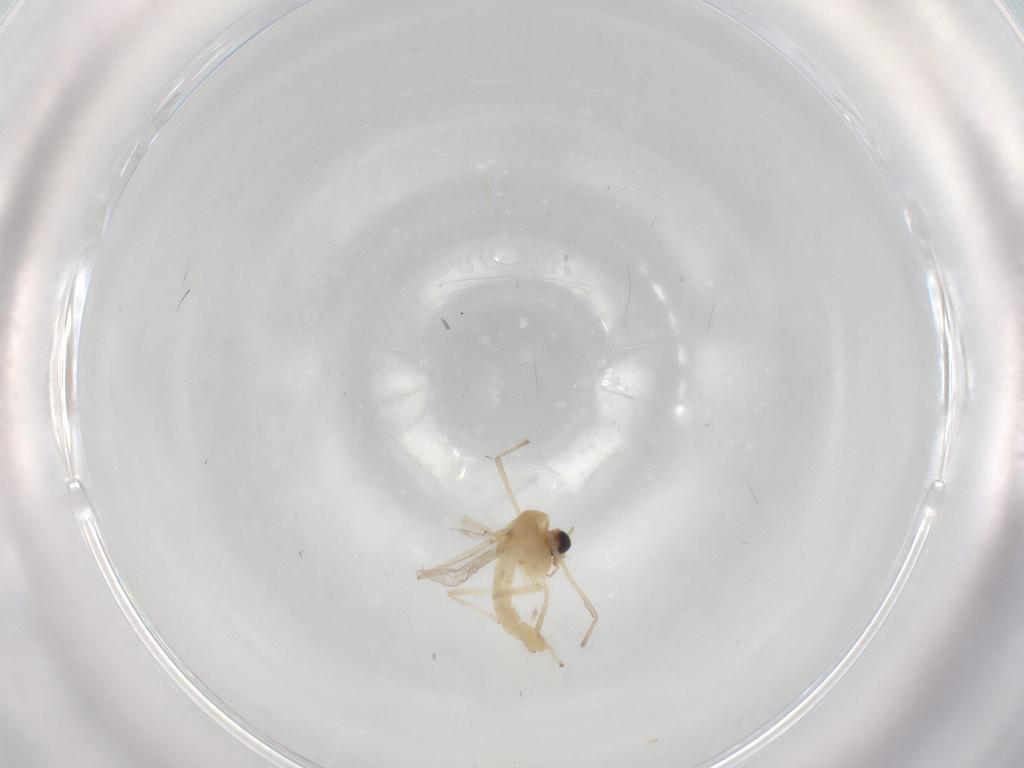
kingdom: Animalia
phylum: Arthropoda
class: Insecta
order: Diptera
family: Chironomidae
